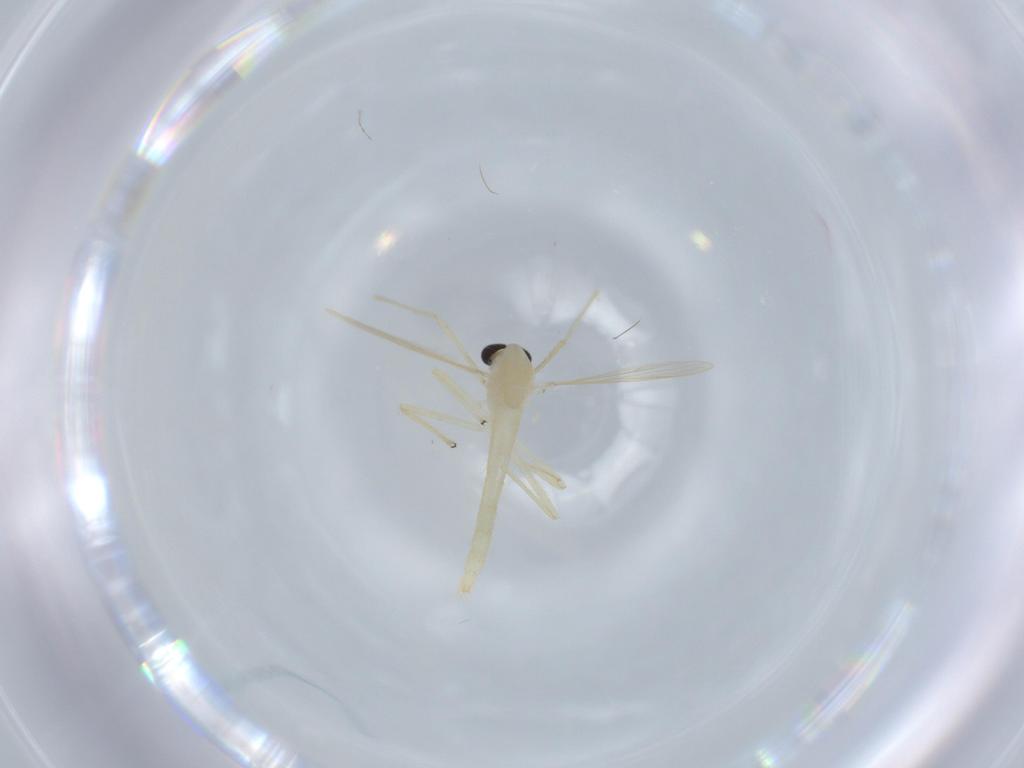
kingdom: Animalia
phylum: Arthropoda
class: Insecta
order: Diptera
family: Chironomidae
